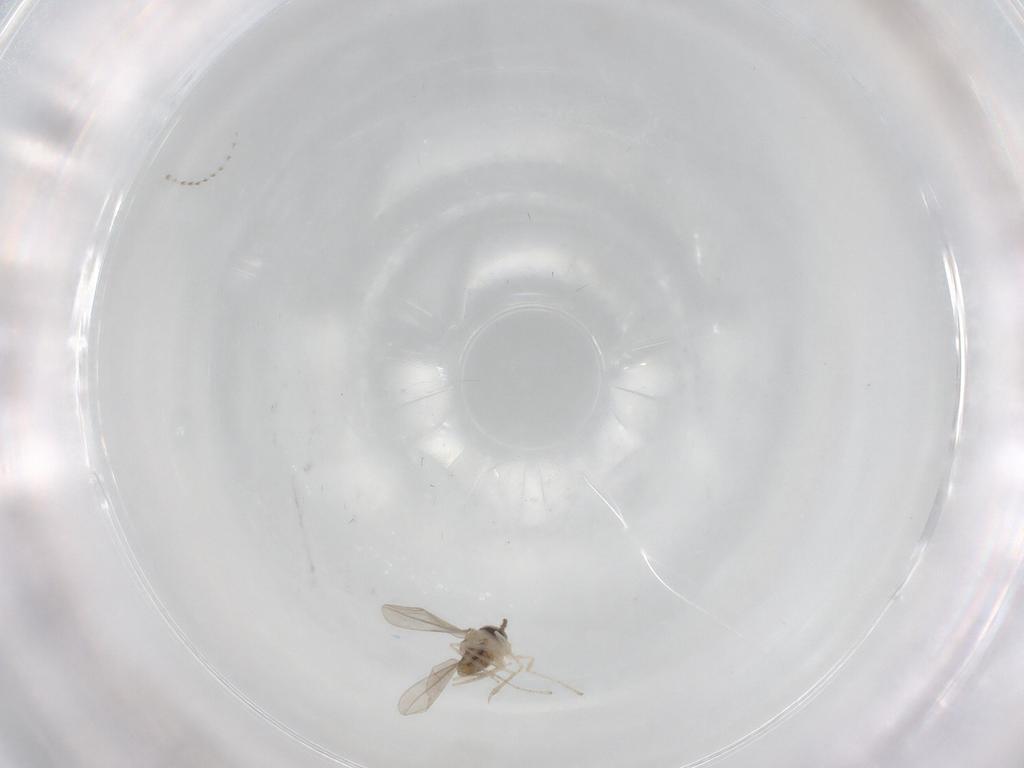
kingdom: Animalia
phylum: Arthropoda
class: Insecta
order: Diptera
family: Cecidomyiidae
